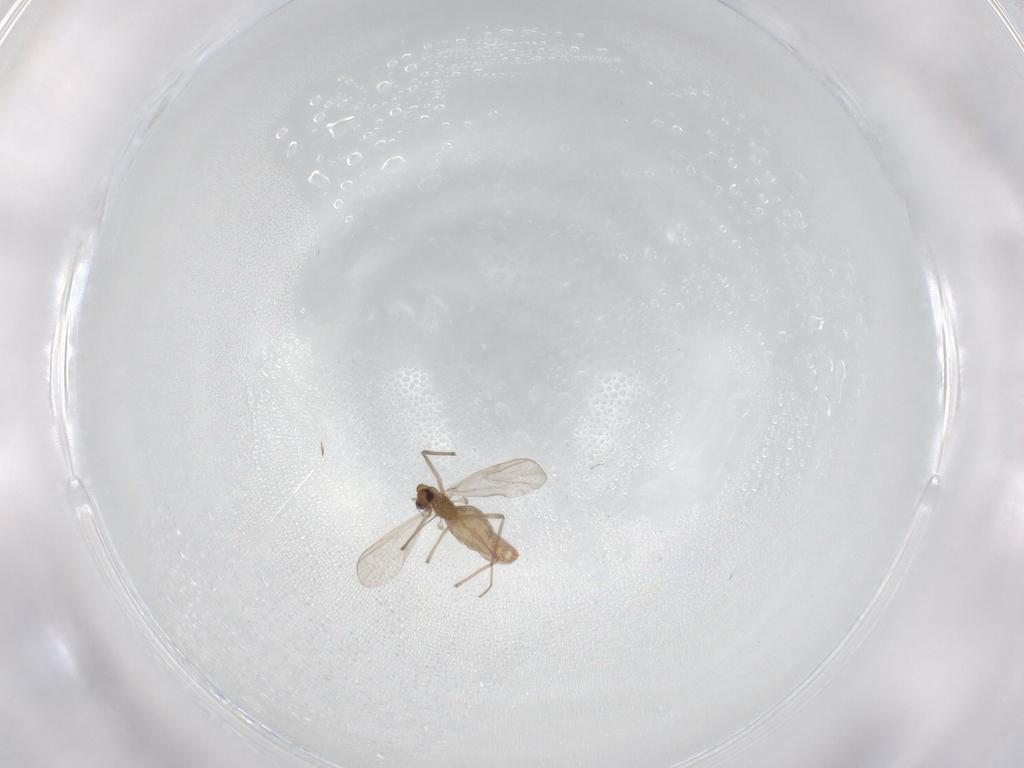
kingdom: Animalia
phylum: Arthropoda
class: Insecta
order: Diptera
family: Chironomidae
